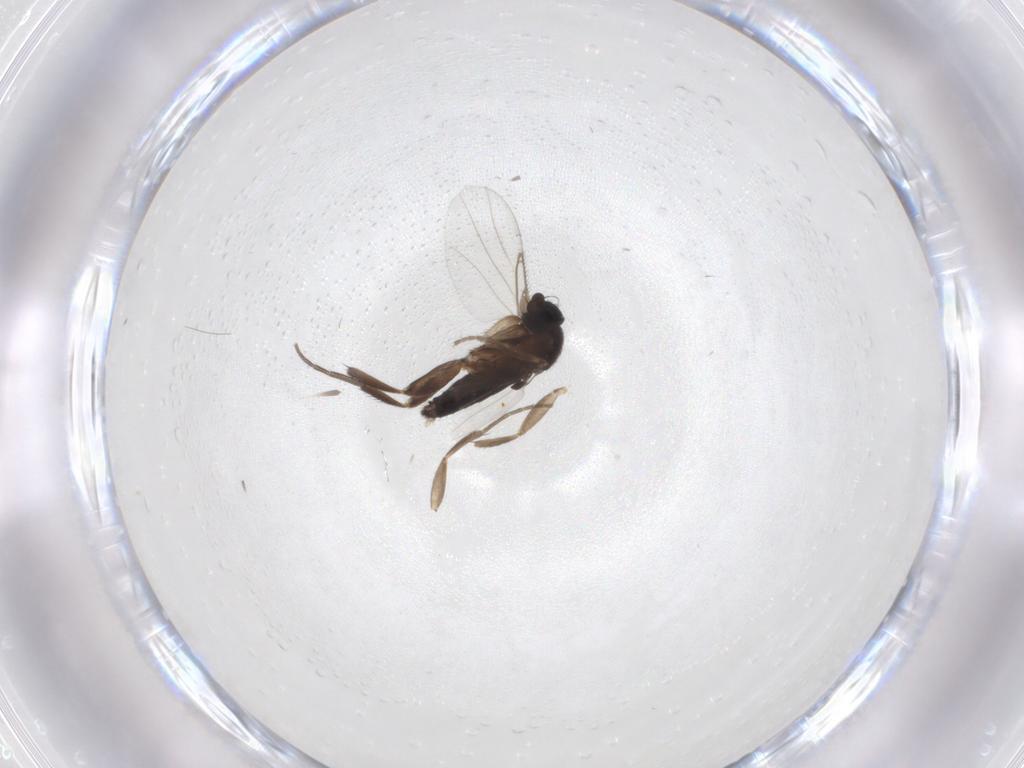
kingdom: Animalia
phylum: Arthropoda
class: Insecta
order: Diptera
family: Phoridae
